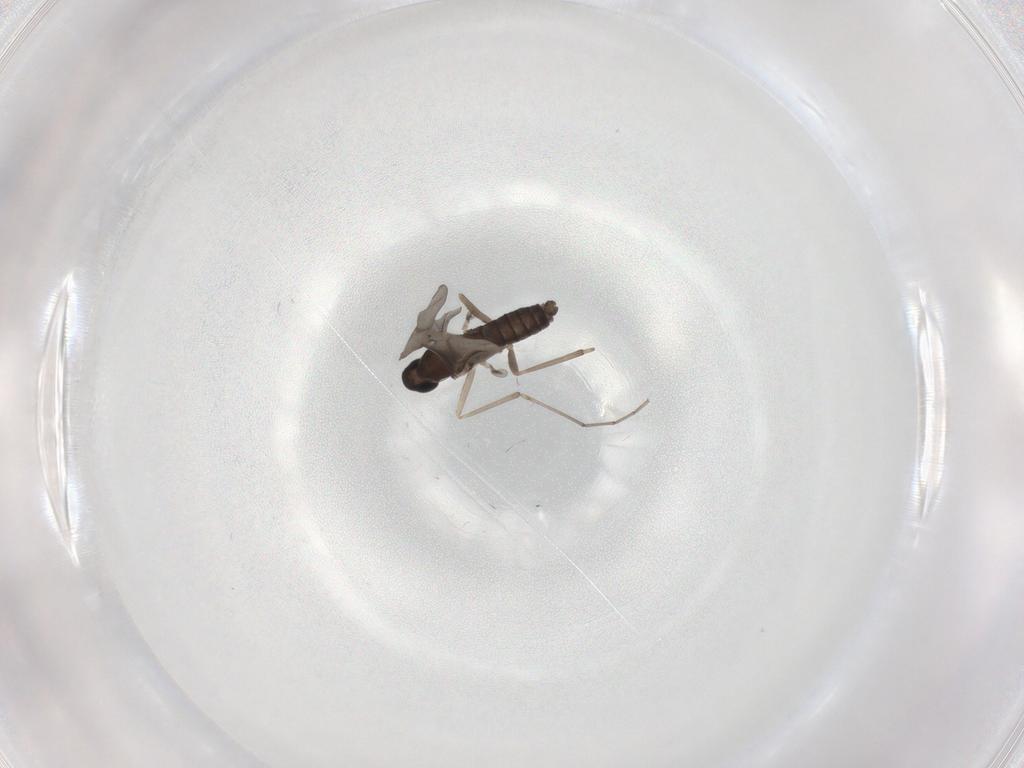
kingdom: Animalia
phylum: Arthropoda
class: Insecta
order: Diptera
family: Cecidomyiidae
